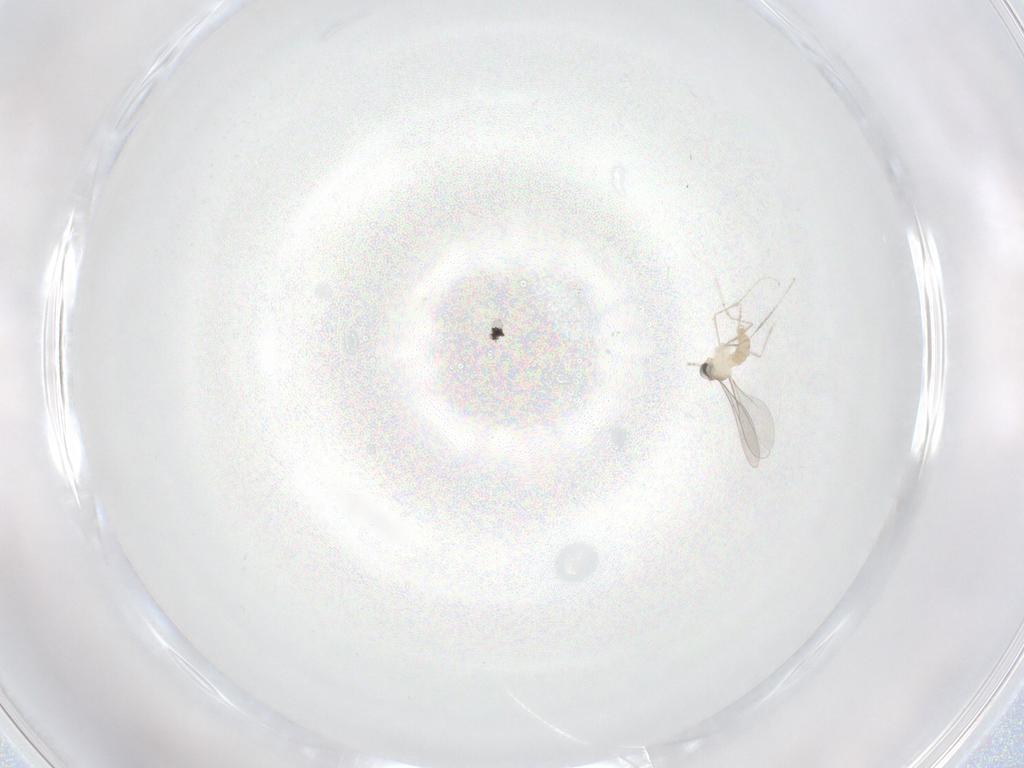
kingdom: Animalia
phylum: Arthropoda
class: Insecta
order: Diptera
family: Cecidomyiidae
